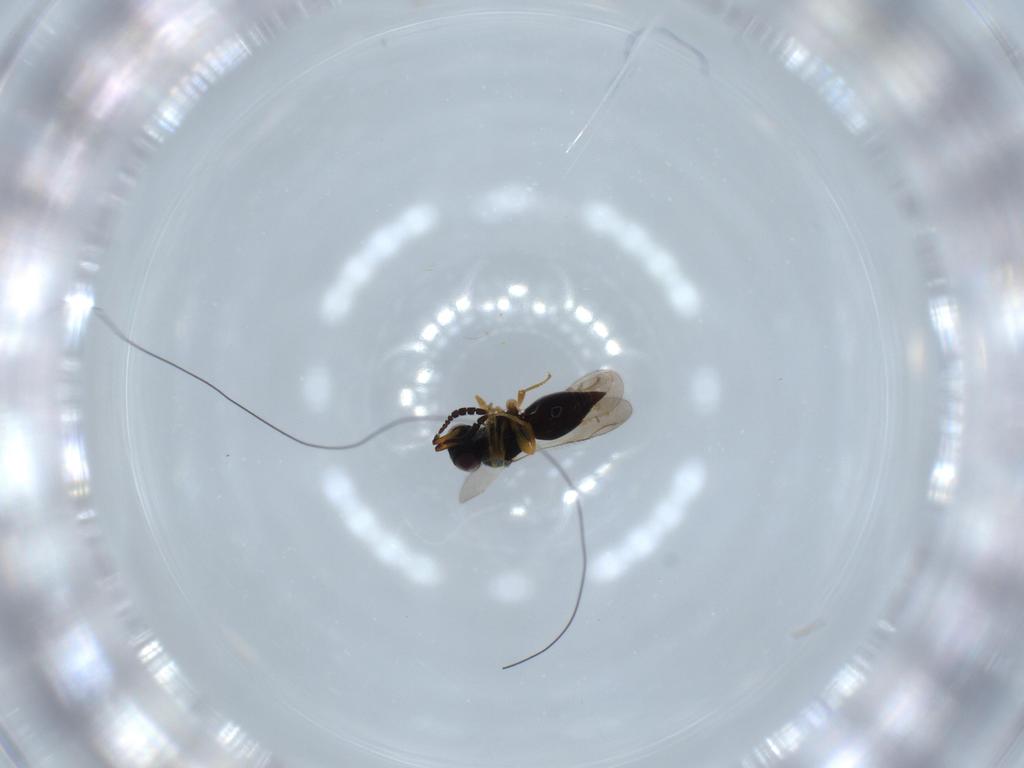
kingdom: Animalia
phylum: Arthropoda
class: Insecta
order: Hymenoptera
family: Ceraphronidae
